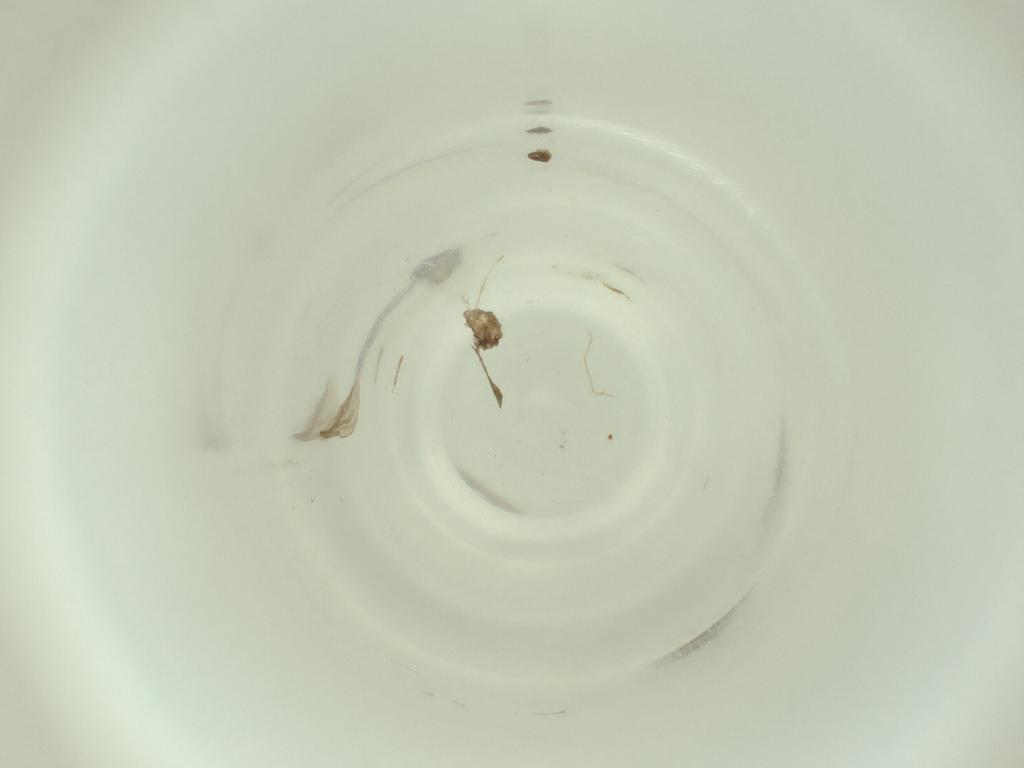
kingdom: Animalia
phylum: Arthropoda
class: Insecta
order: Diptera
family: Cecidomyiidae
